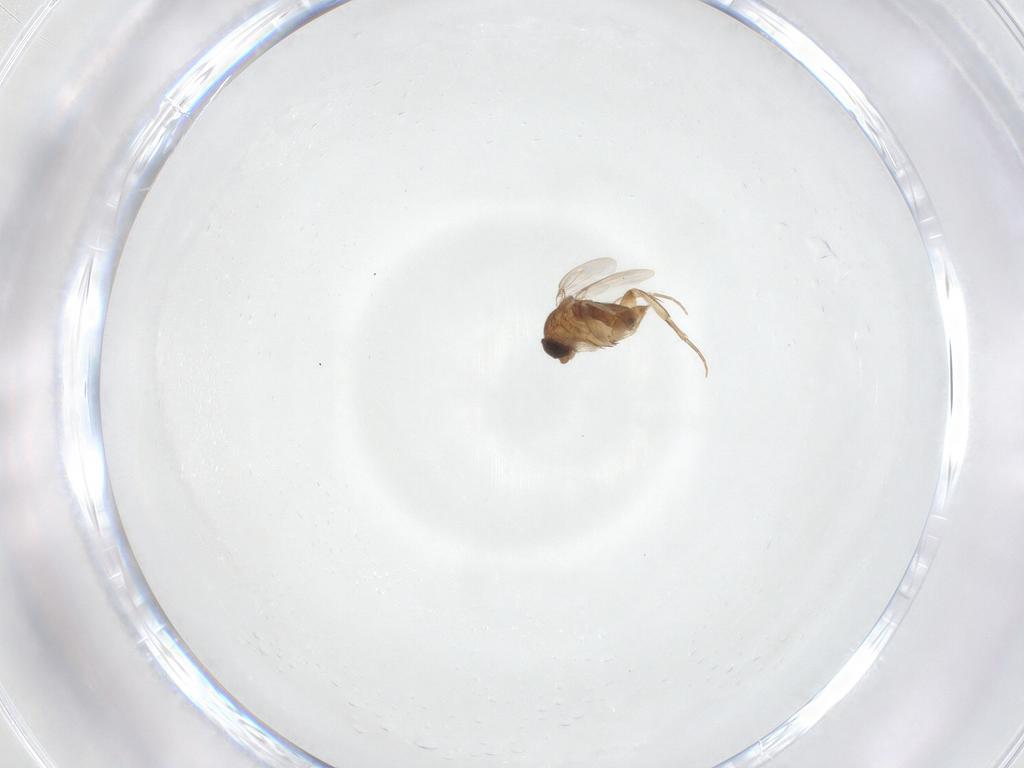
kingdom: Animalia
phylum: Arthropoda
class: Insecta
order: Diptera
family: Phoridae
